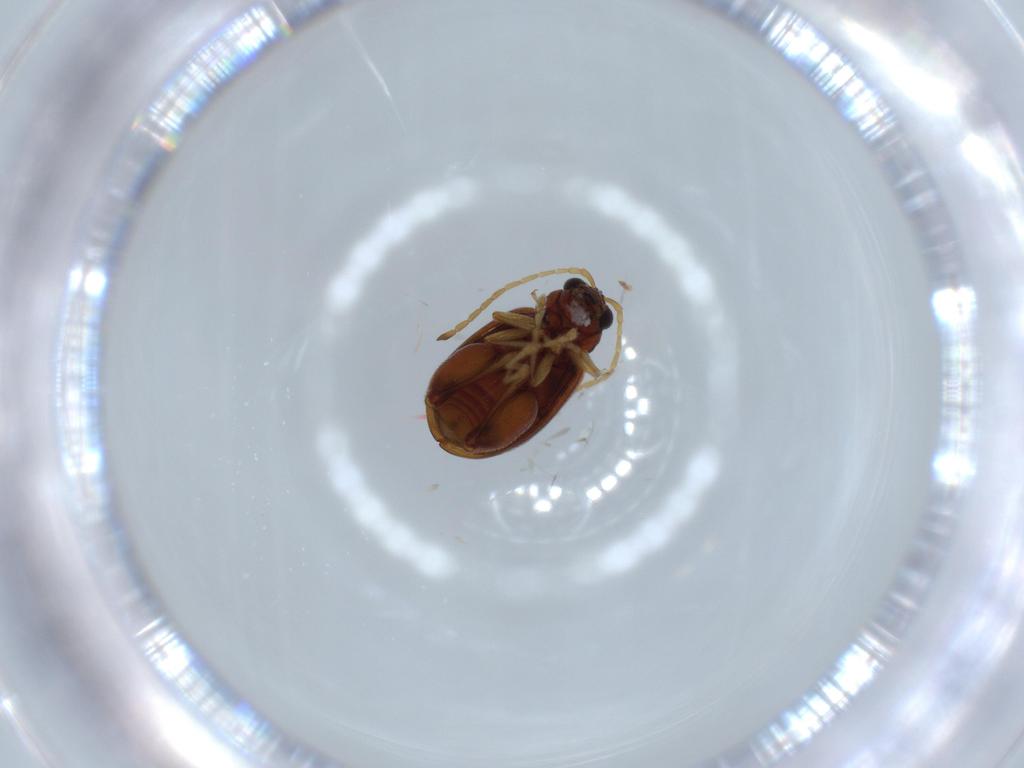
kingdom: Animalia
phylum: Arthropoda
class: Insecta
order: Coleoptera
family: Chrysomelidae
